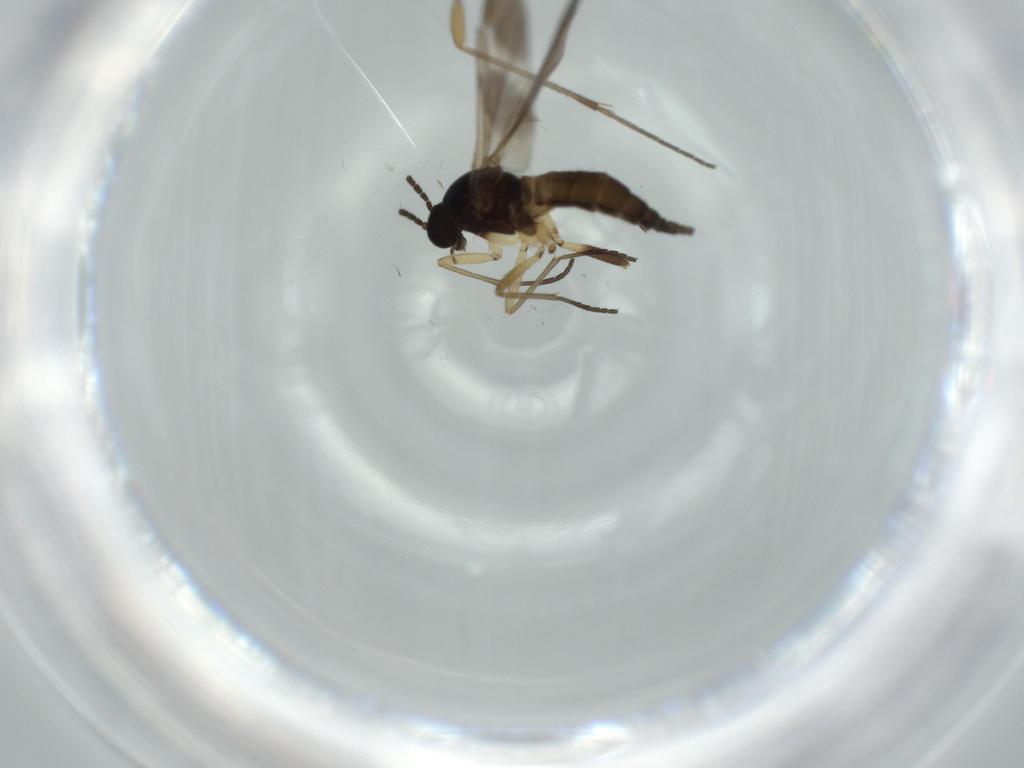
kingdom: Animalia
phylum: Arthropoda
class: Insecta
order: Diptera
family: Sciaridae
